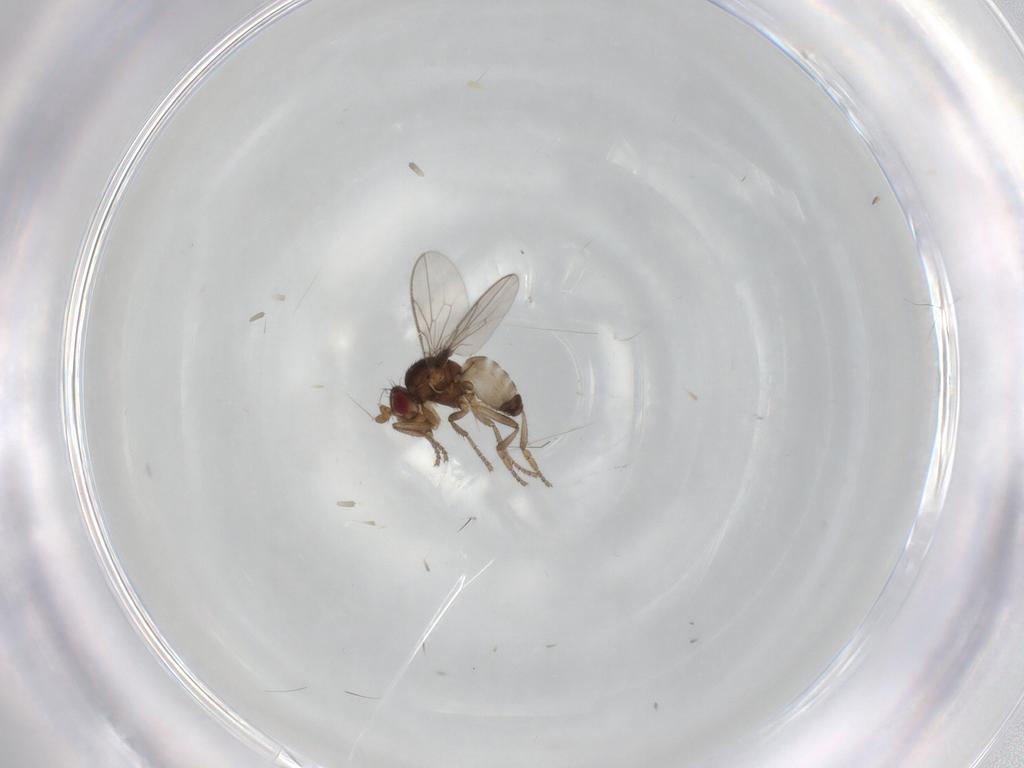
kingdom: Animalia
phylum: Arthropoda
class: Insecta
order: Diptera
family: Sphaeroceridae
